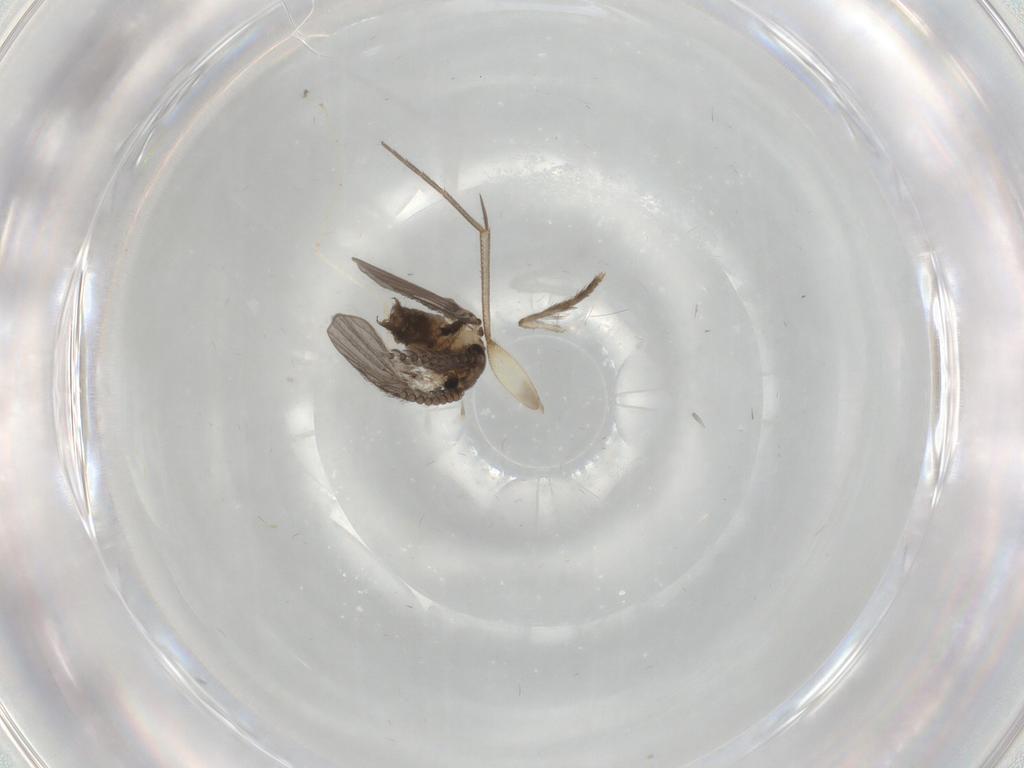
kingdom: Animalia
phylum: Arthropoda
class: Insecta
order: Diptera
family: Psychodidae
